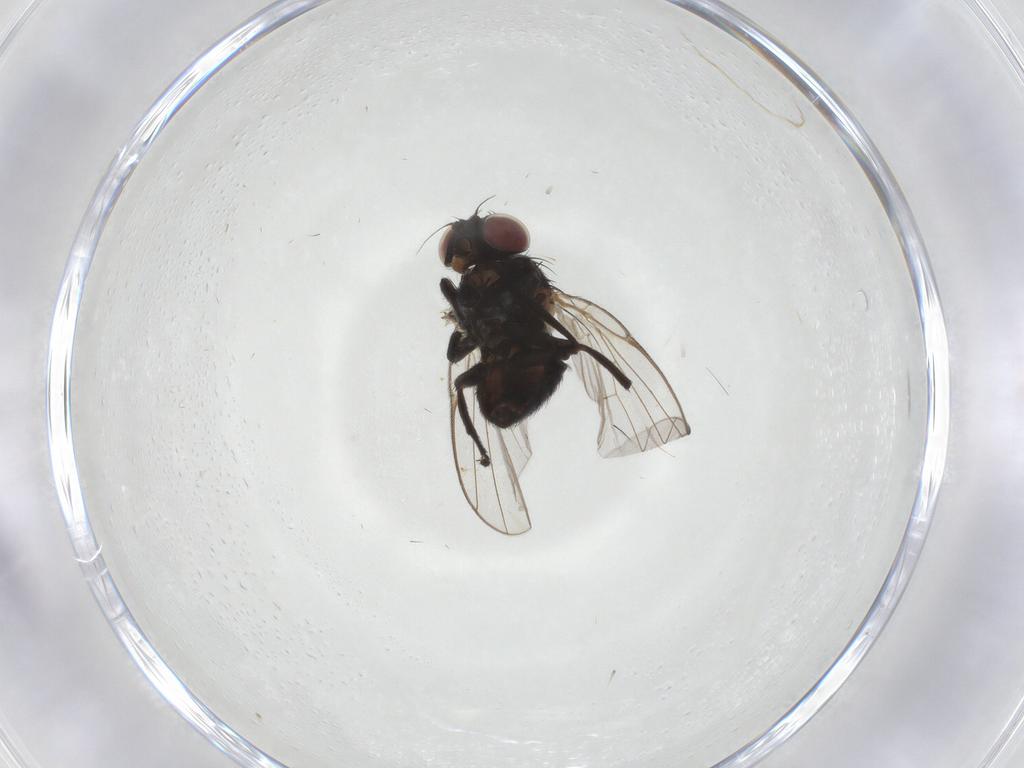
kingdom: Animalia
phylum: Arthropoda
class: Insecta
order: Diptera
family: Agromyzidae
